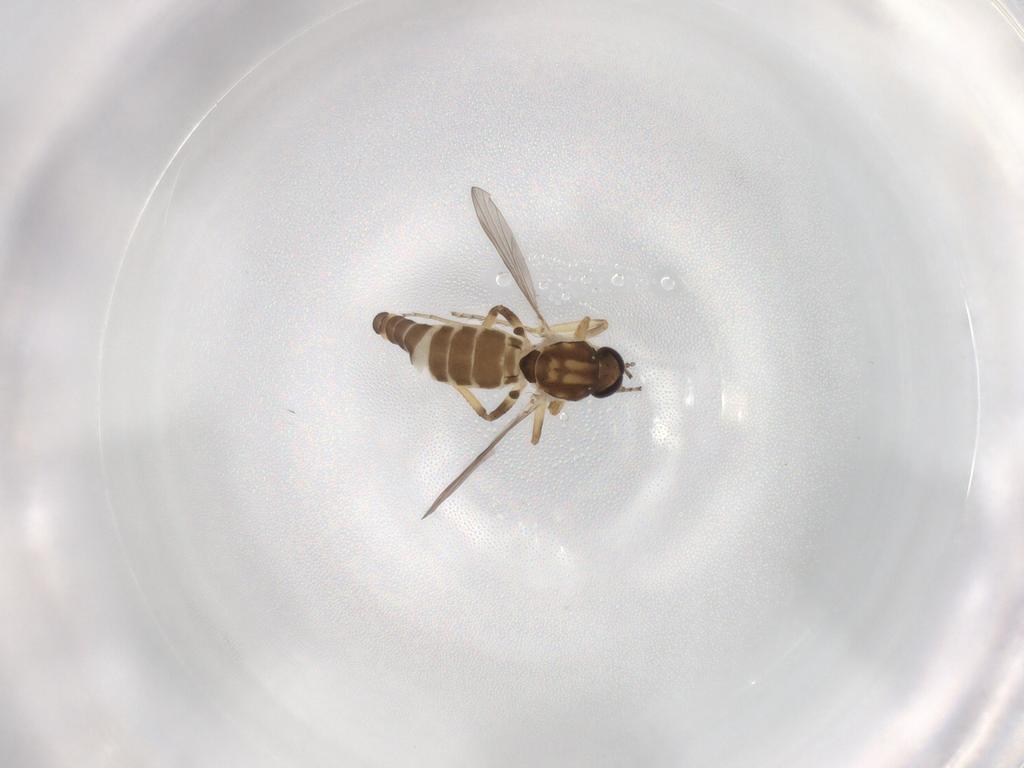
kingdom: Animalia
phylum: Arthropoda
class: Insecta
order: Diptera
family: Ceratopogonidae
